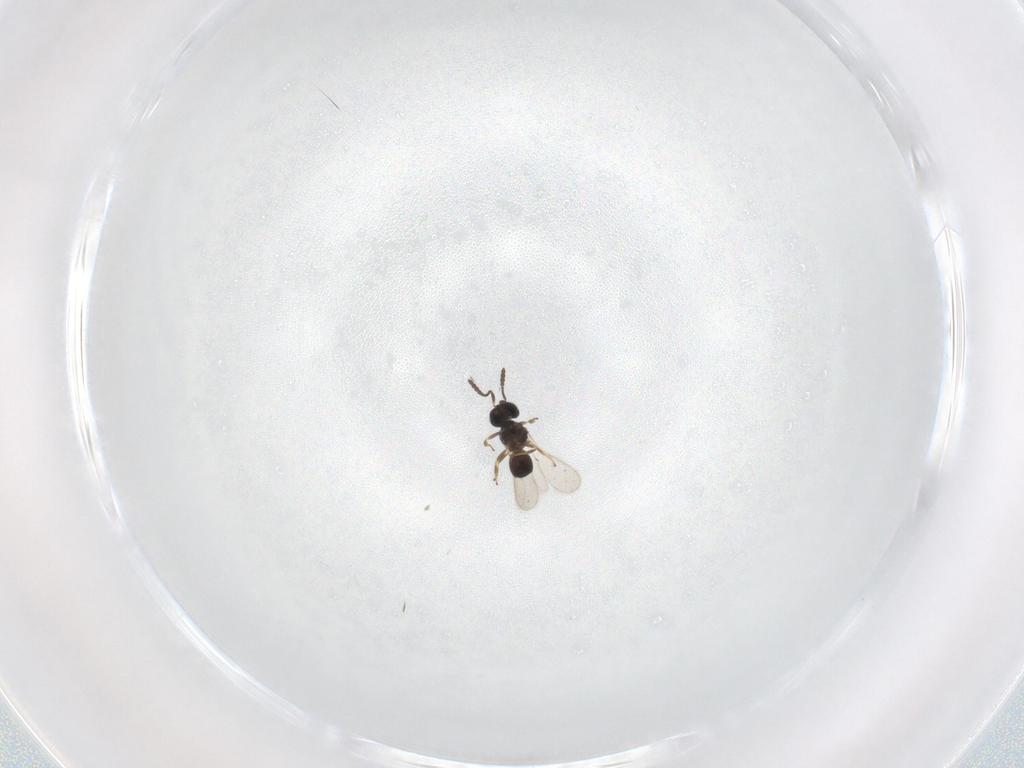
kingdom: Animalia
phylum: Arthropoda
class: Insecta
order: Hymenoptera
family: Scelionidae
